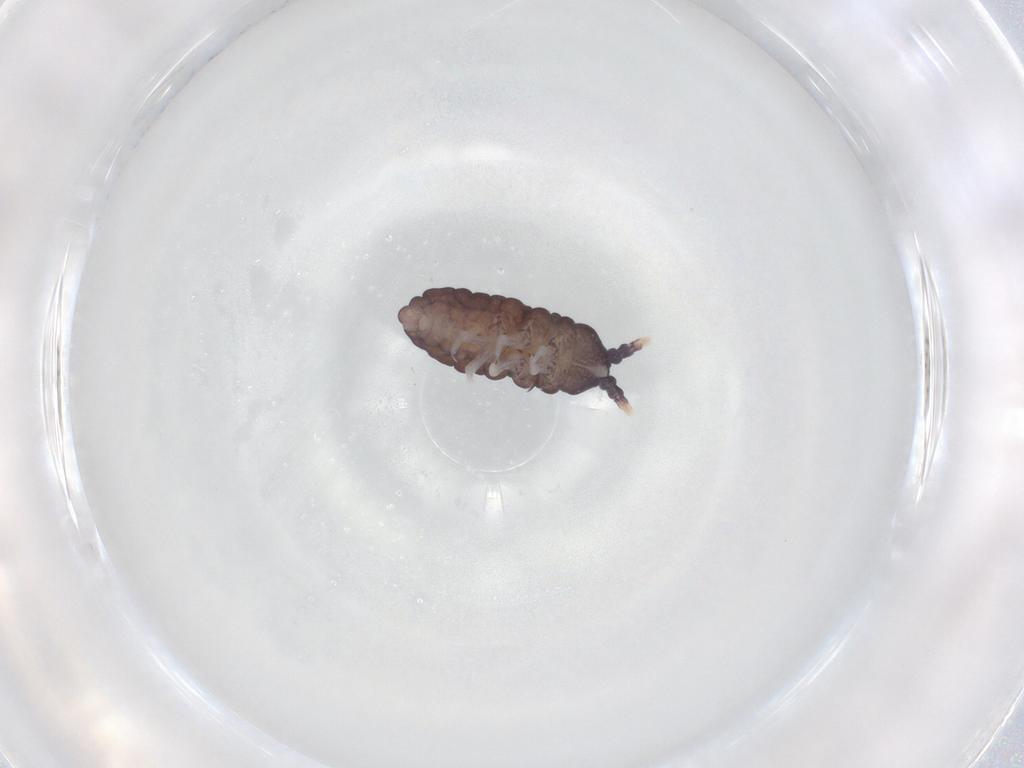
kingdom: Animalia
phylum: Arthropoda
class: Collembola
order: Poduromorpha
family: Neanuridae
